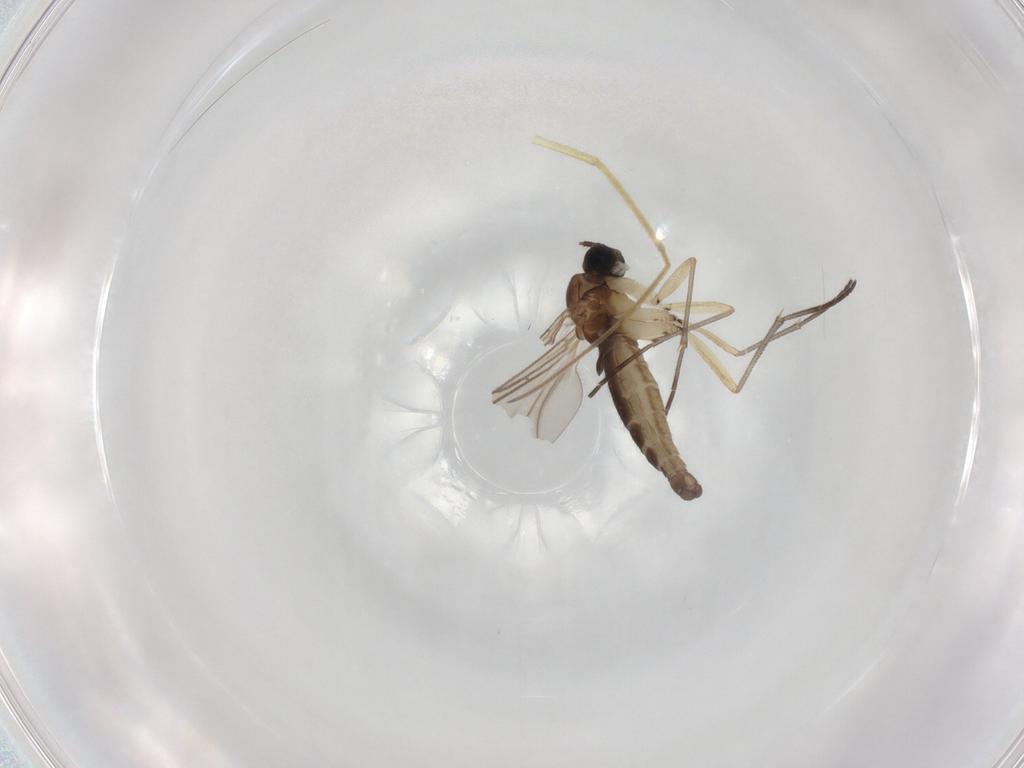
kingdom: Animalia
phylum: Arthropoda
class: Insecta
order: Diptera
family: Sciaridae
